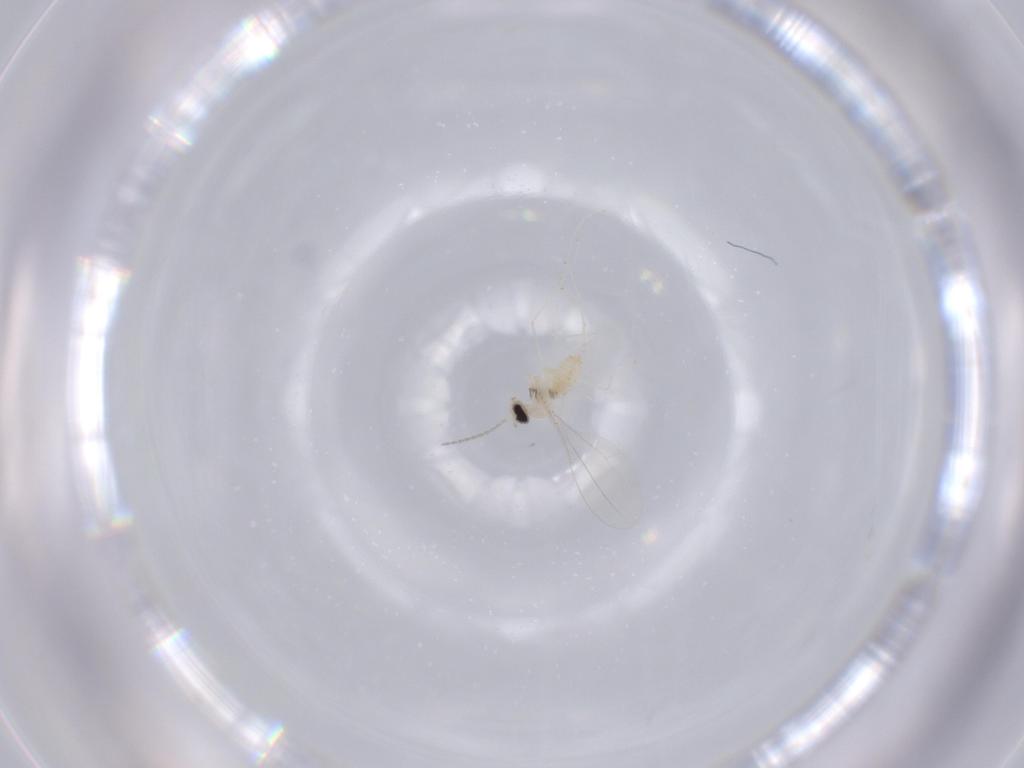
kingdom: Animalia
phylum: Arthropoda
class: Insecta
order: Diptera
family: Cecidomyiidae
